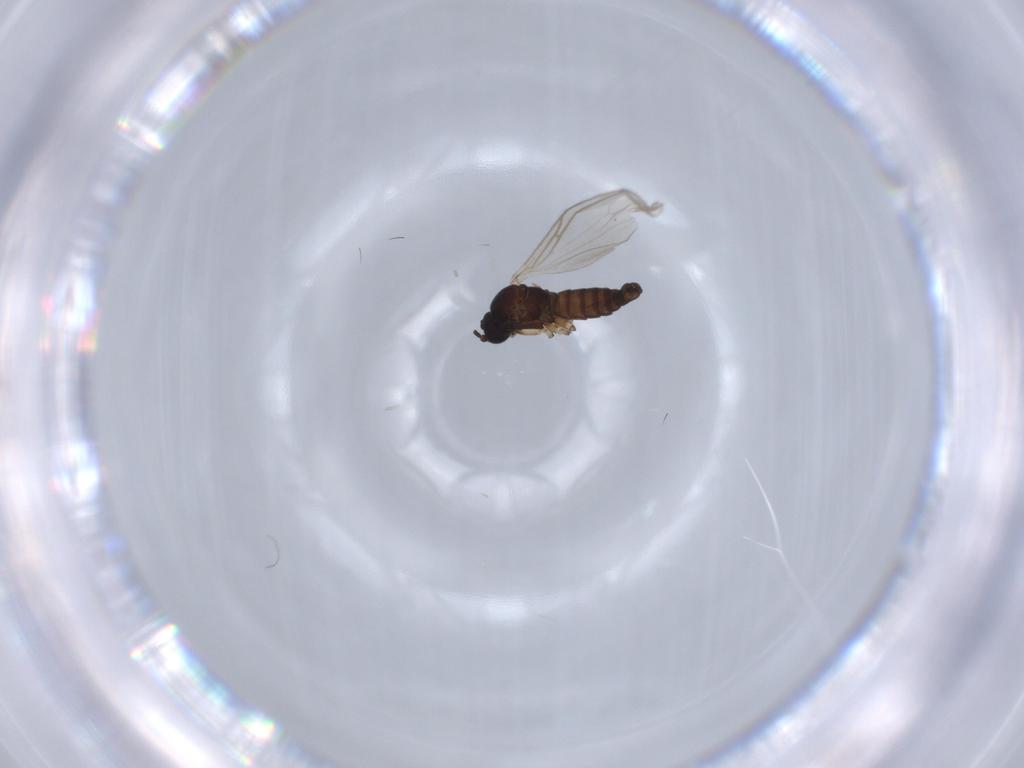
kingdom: Animalia
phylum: Arthropoda
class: Insecta
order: Diptera
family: Culicidae
